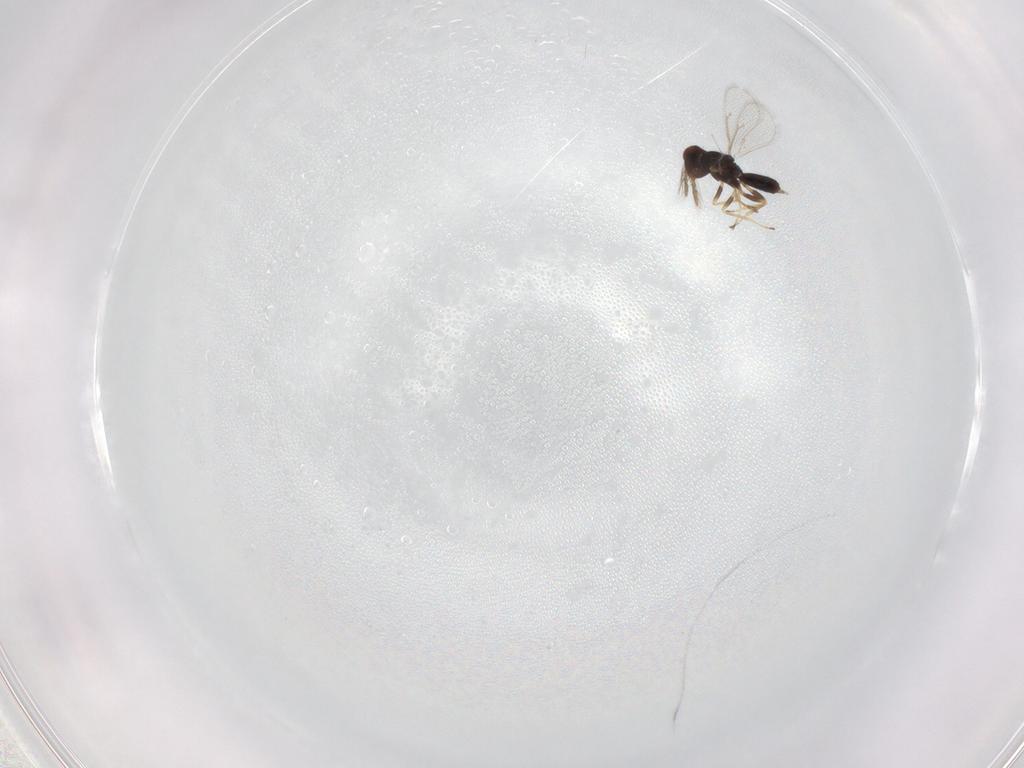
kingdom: Animalia
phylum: Arthropoda
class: Insecta
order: Hymenoptera
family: Eulophidae
